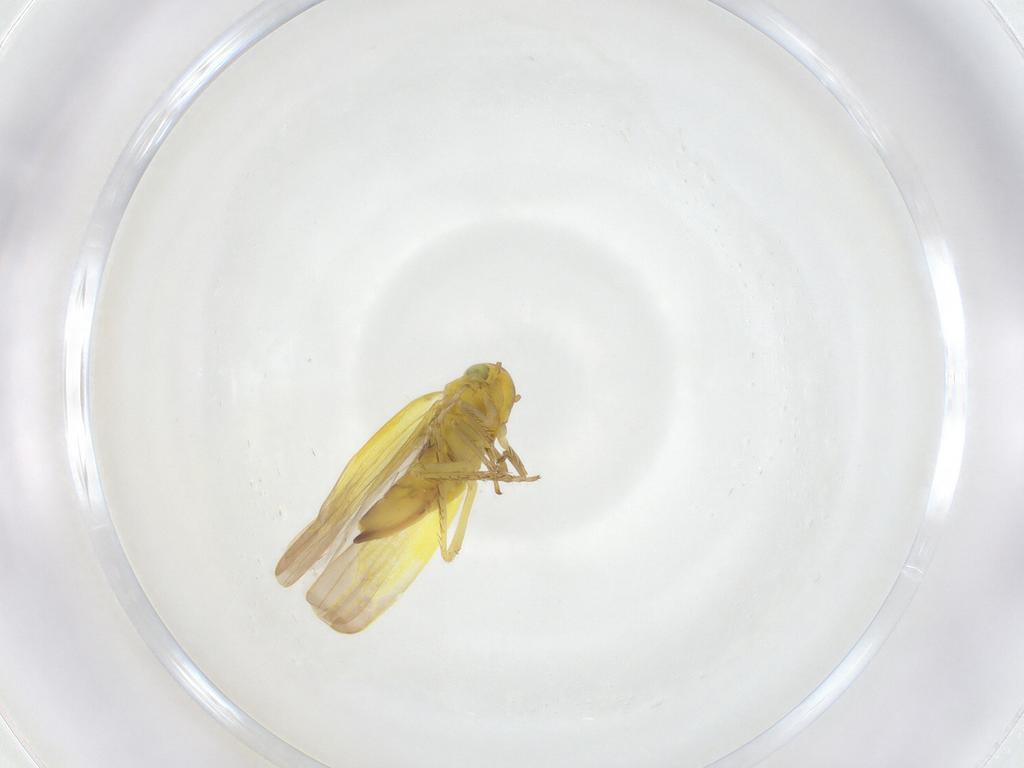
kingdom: Animalia
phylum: Arthropoda
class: Insecta
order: Hemiptera
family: Cicadellidae
